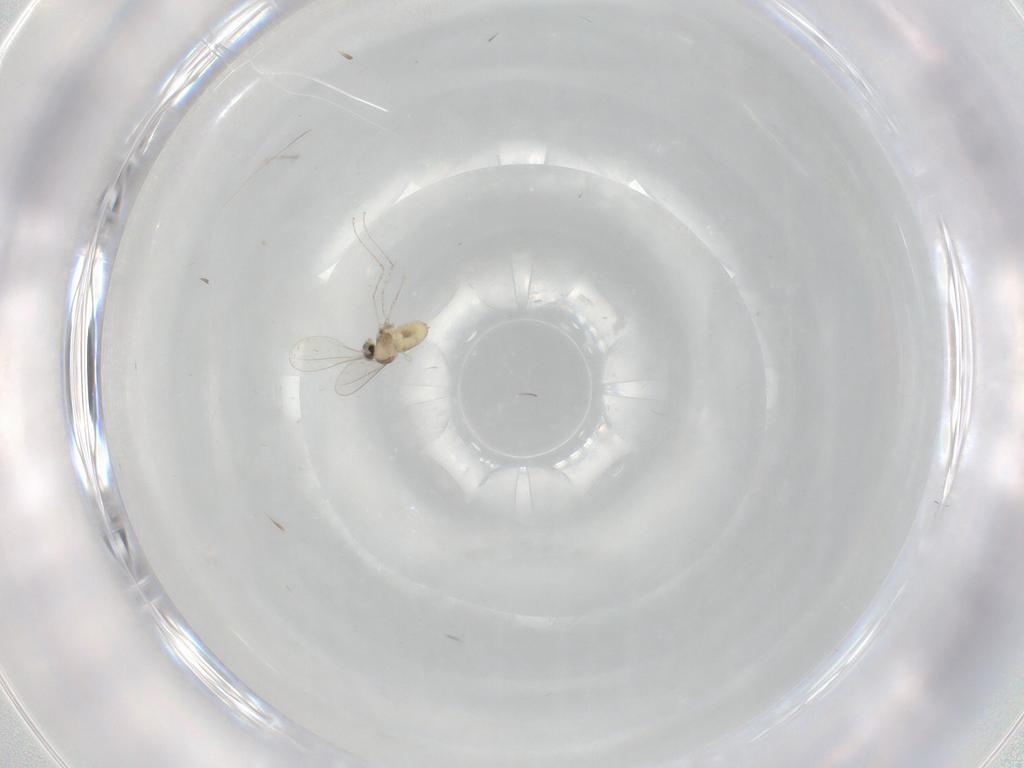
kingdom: Animalia
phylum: Arthropoda
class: Insecta
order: Diptera
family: Cecidomyiidae
